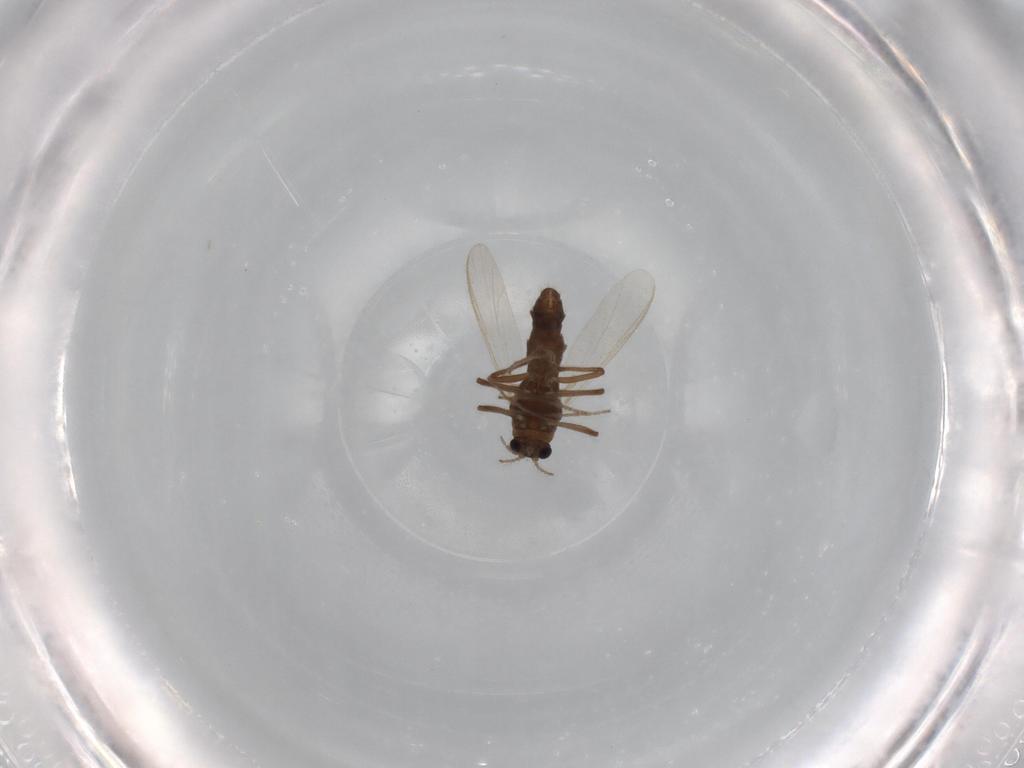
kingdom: Animalia
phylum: Arthropoda
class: Insecta
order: Diptera
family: Chironomidae
